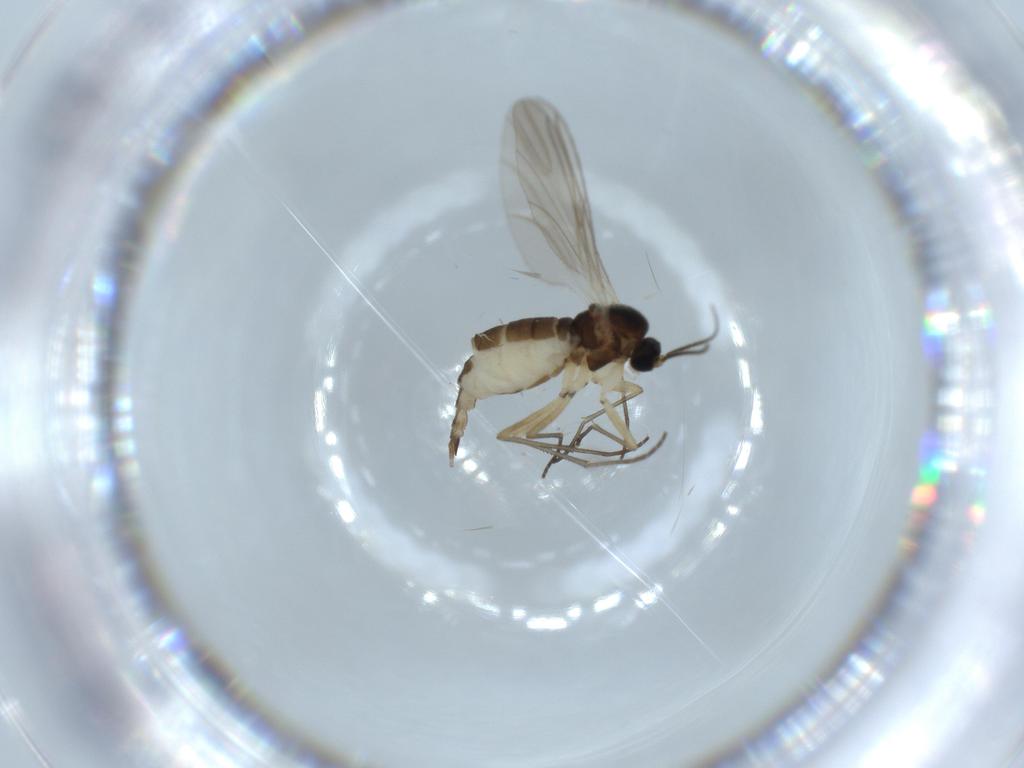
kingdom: Animalia
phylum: Arthropoda
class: Insecta
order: Diptera
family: Sciaridae
